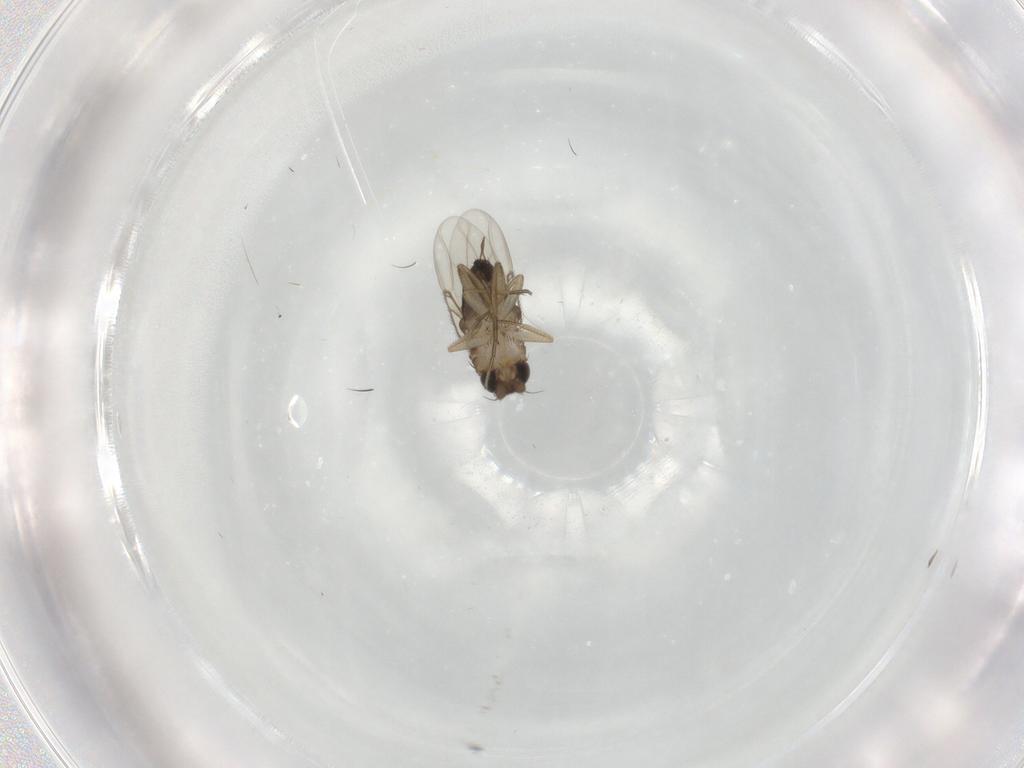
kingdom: Animalia
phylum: Arthropoda
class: Insecta
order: Diptera
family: Cecidomyiidae
